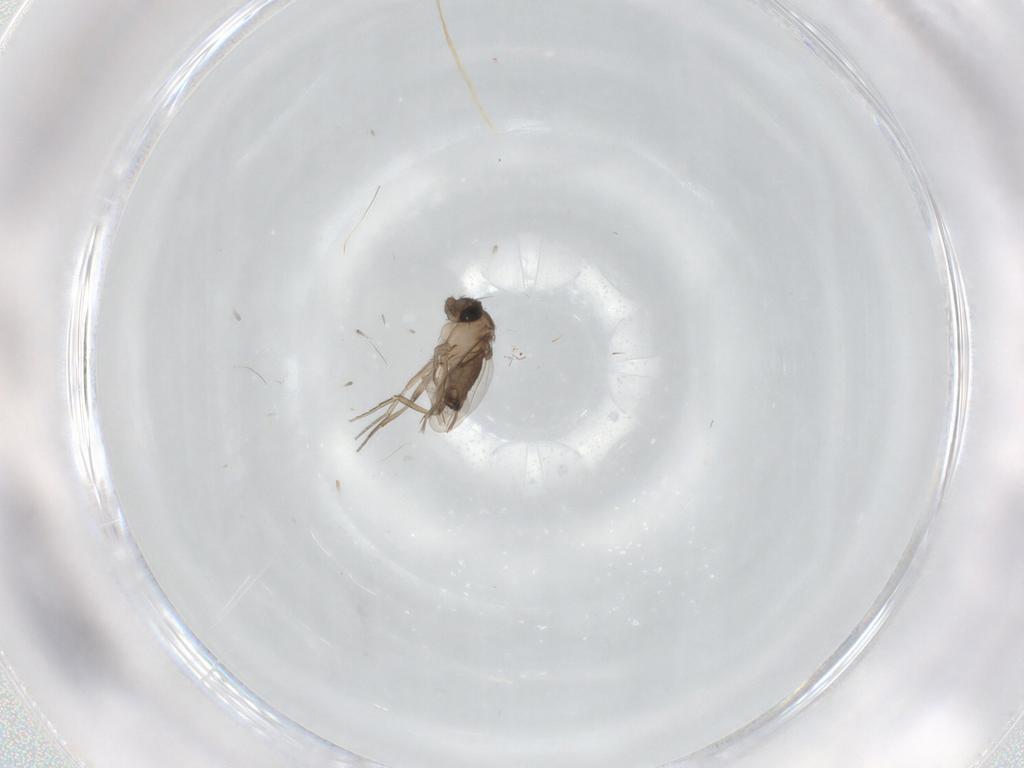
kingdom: Animalia
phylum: Arthropoda
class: Insecta
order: Diptera
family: Phoridae
